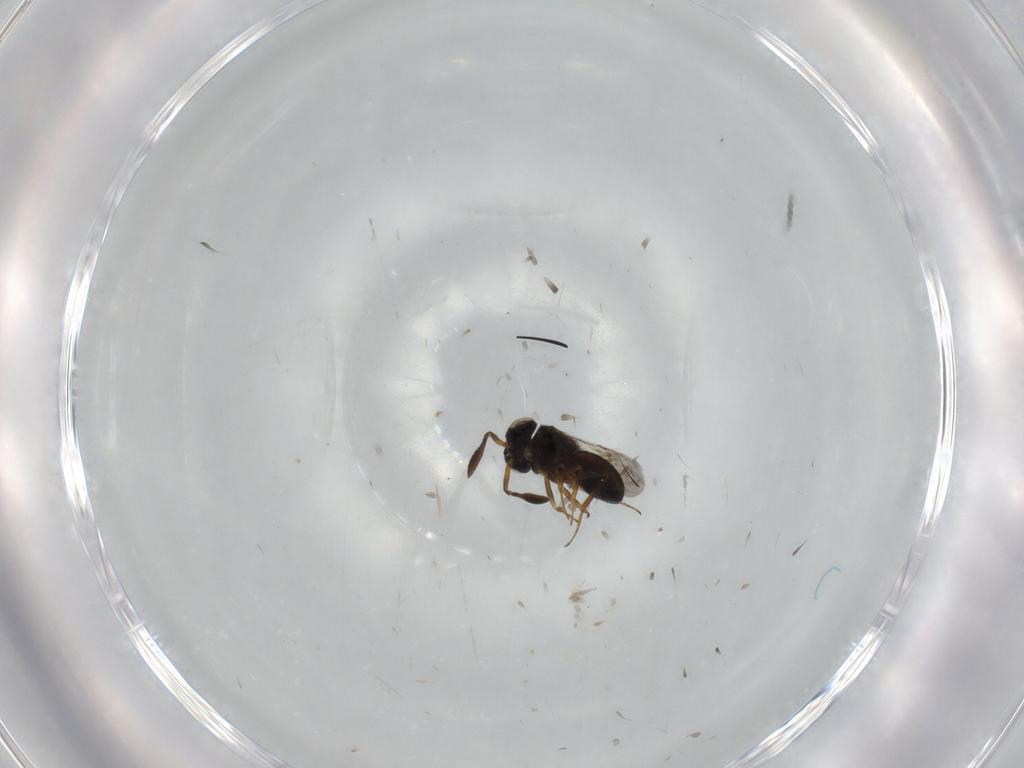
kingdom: Animalia
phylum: Arthropoda
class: Insecta
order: Hymenoptera
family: Scelionidae
